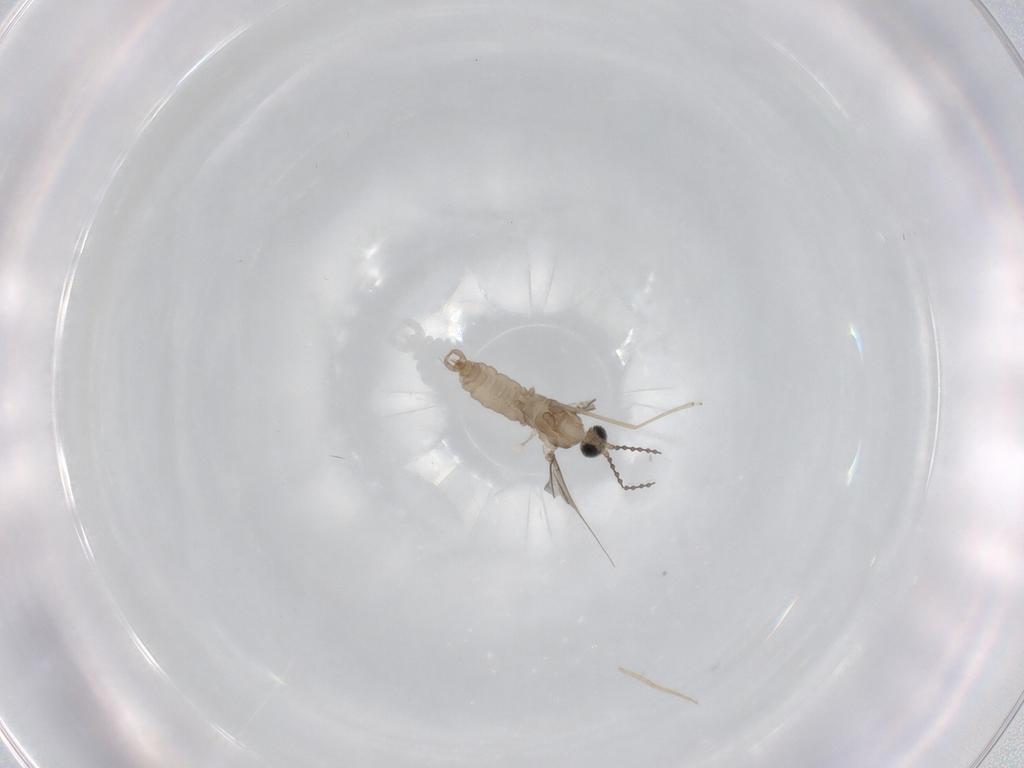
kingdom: Animalia
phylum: Arthropoda
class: Insecta
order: Diptera
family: Cecidomyiidae
